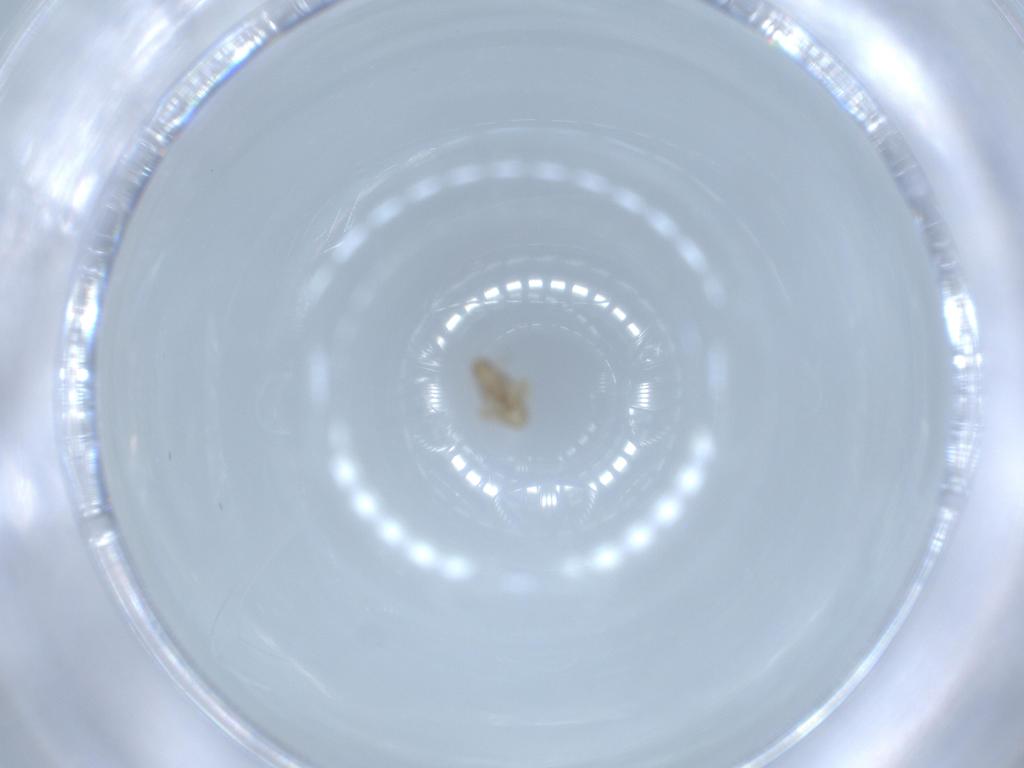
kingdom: Animalia
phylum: Arthropoda
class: Insecta
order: Hemiptera
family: Delphacidae
